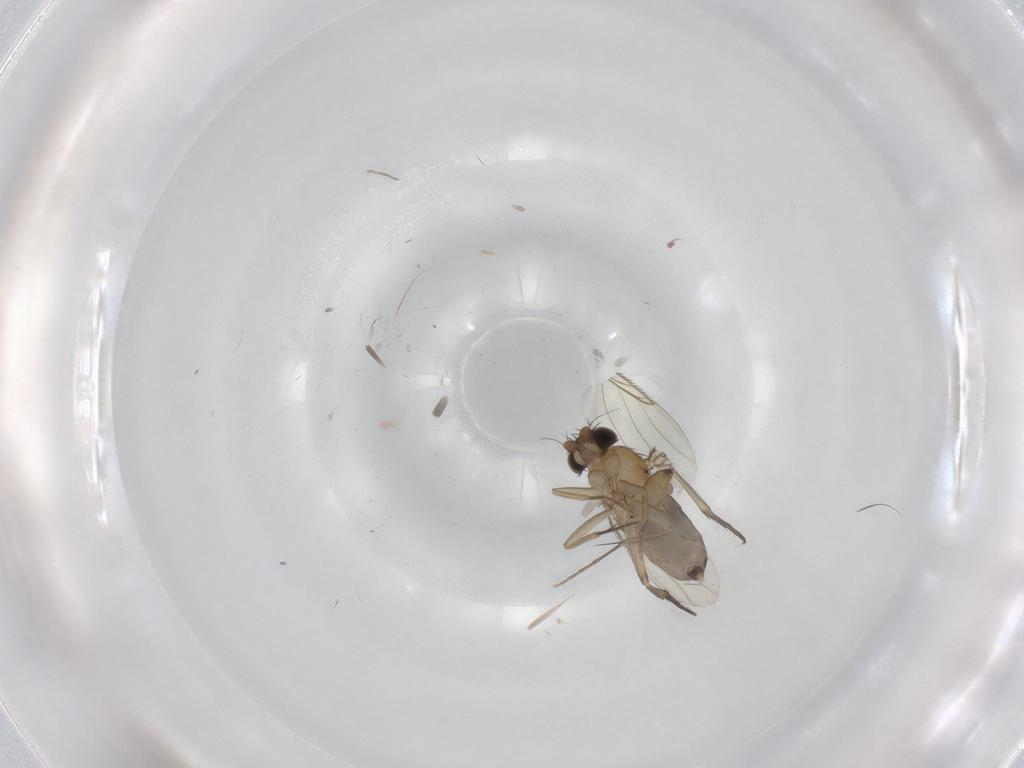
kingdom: Animalia
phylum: Arthropoda
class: Insecta
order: Diptera
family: Phoridae
